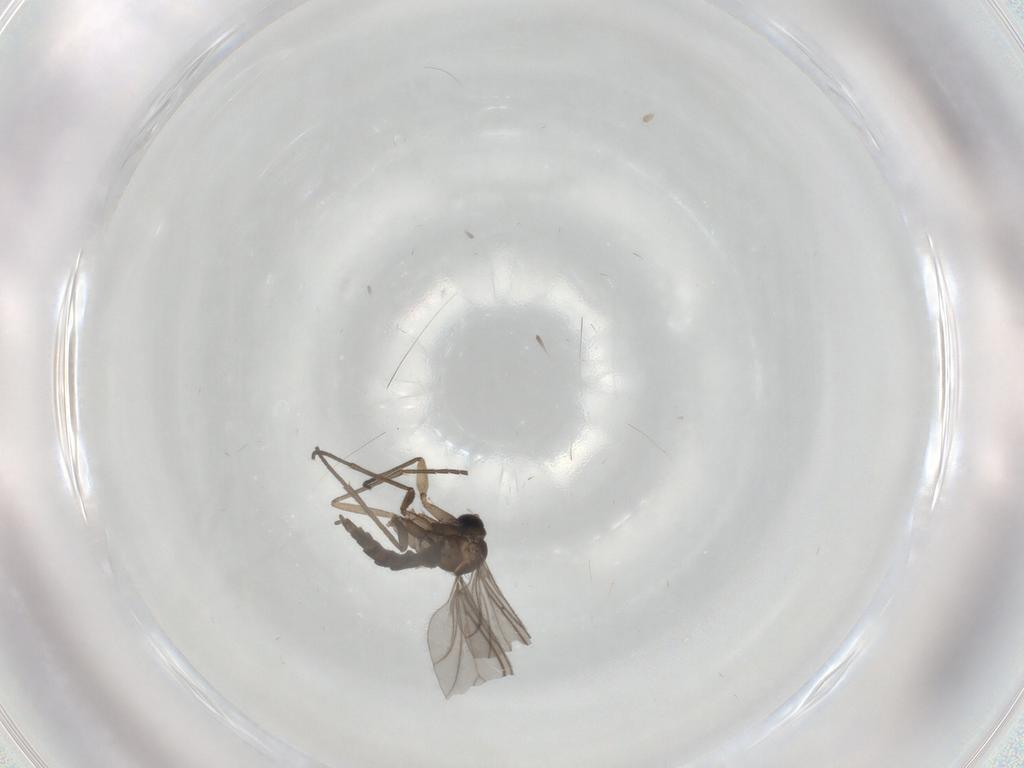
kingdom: Animalia
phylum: Arthropoda
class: Insecta
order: Diptera
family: Sciaridae
